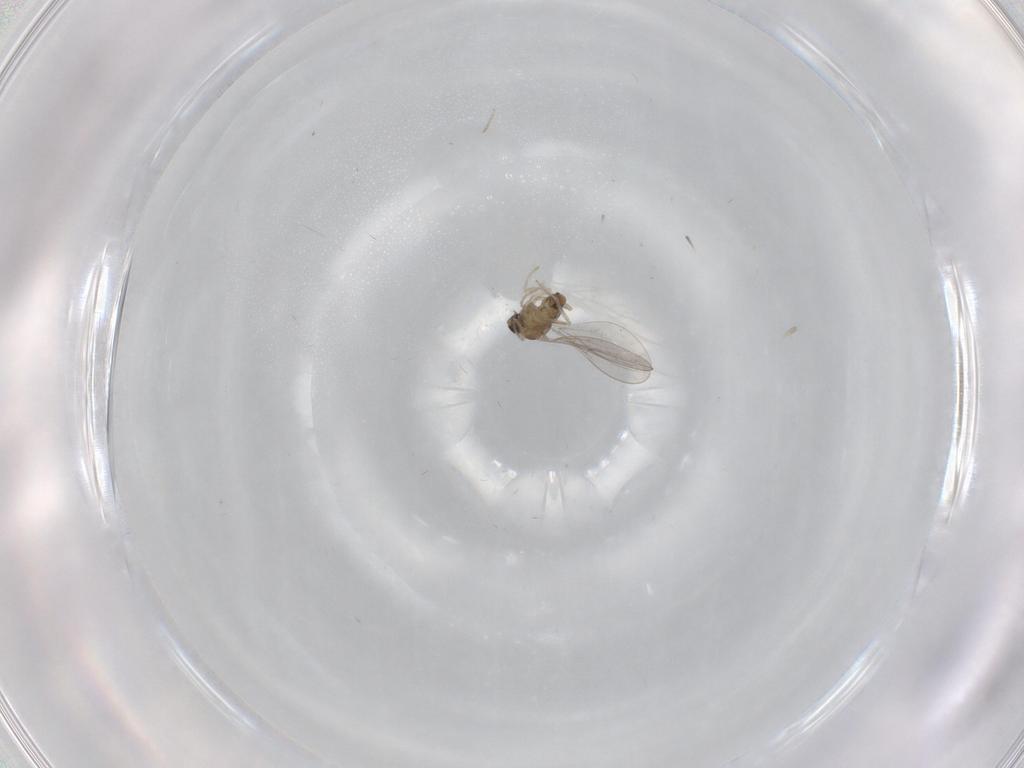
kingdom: Animalia
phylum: Arthropoda
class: Insecta
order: Diptera
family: Cecidomyiidae
